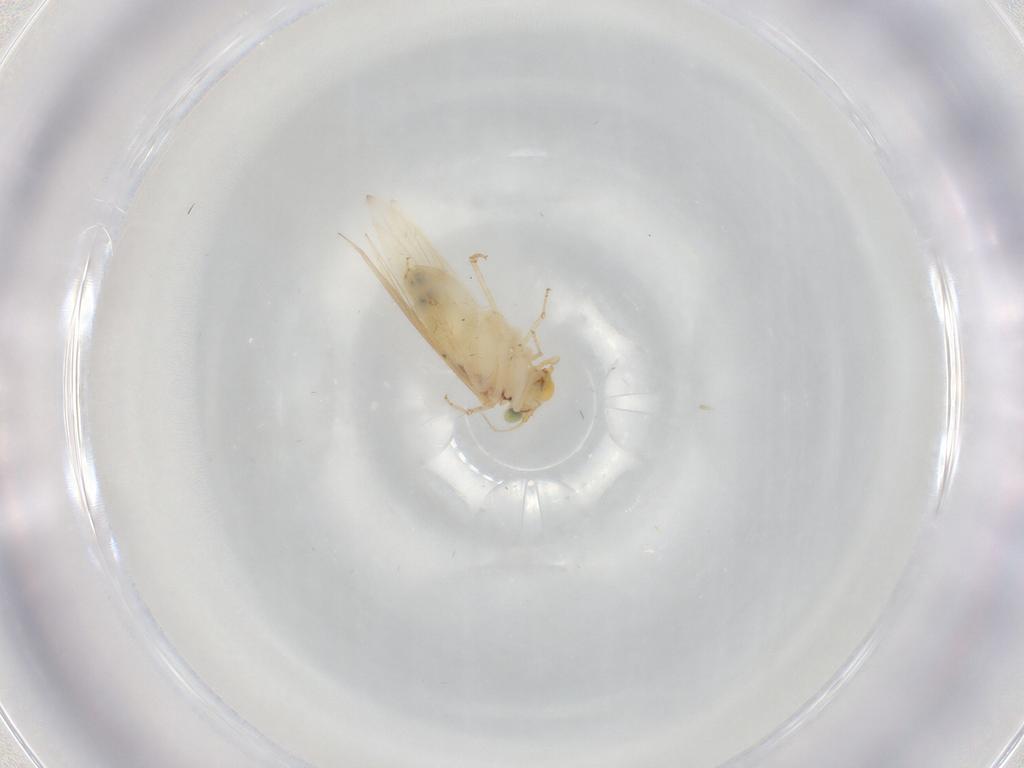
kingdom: Animalia
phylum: Arthropoda
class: Insecta
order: Psocodea
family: Lepidopsocidae
